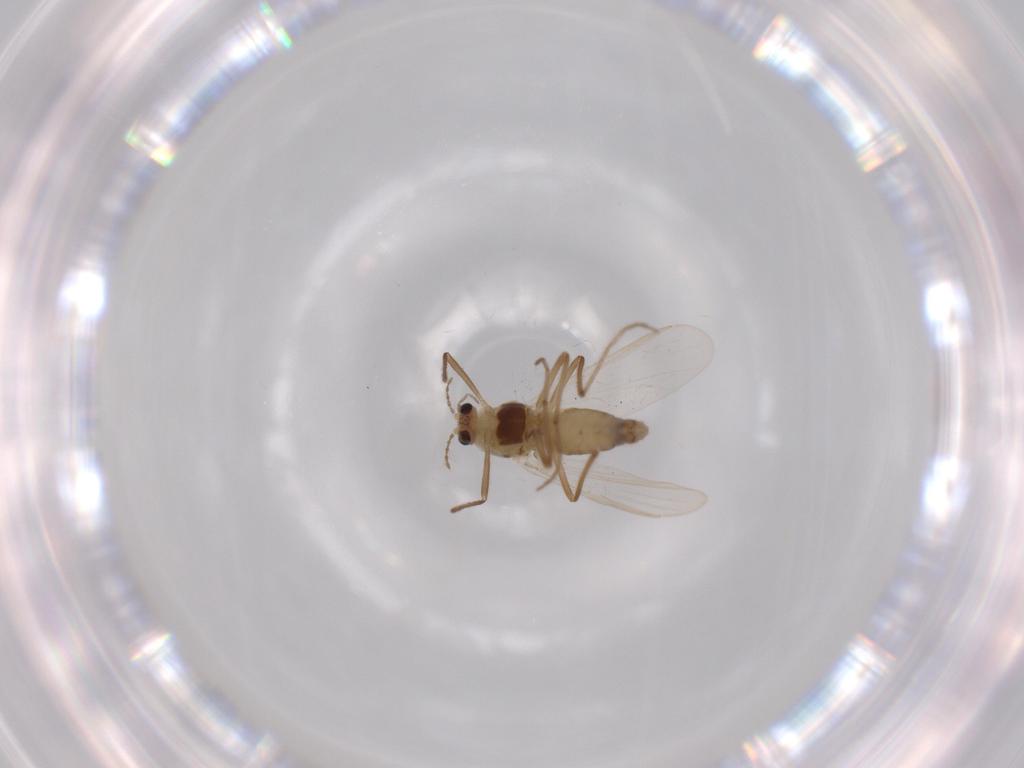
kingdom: Animalia
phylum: Arthropoda
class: Insecta
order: Diptera
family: Chironomidae
